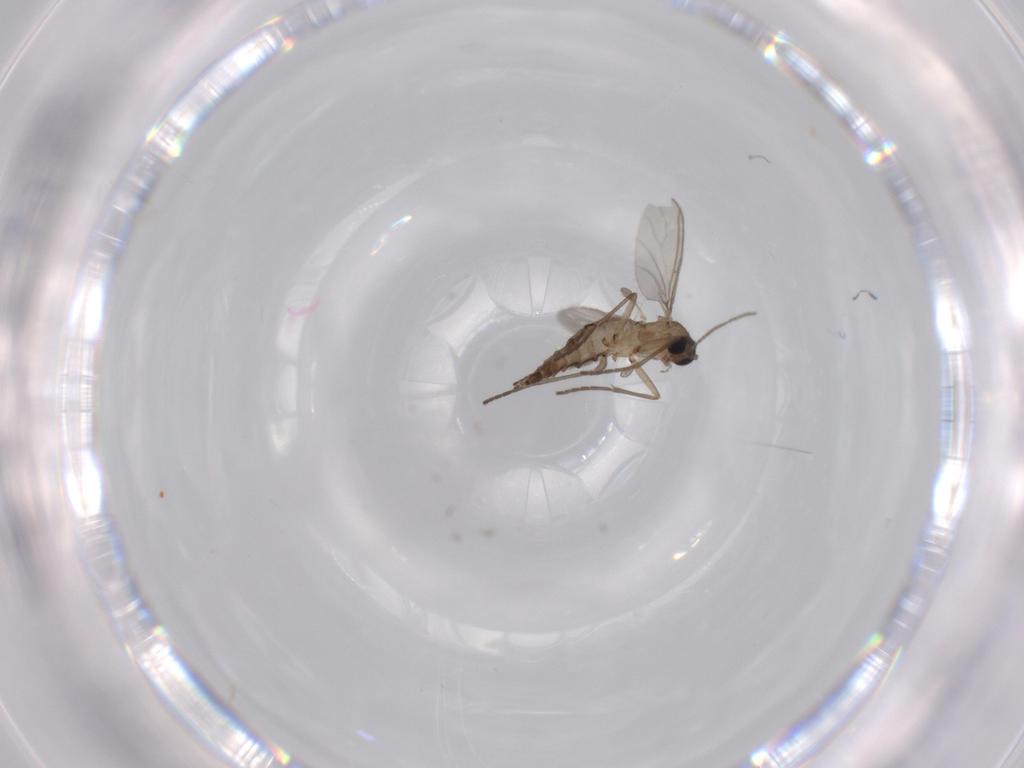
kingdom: Animalia
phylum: Arthropoda
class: Insecta
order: Diptera
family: Sciaridae
